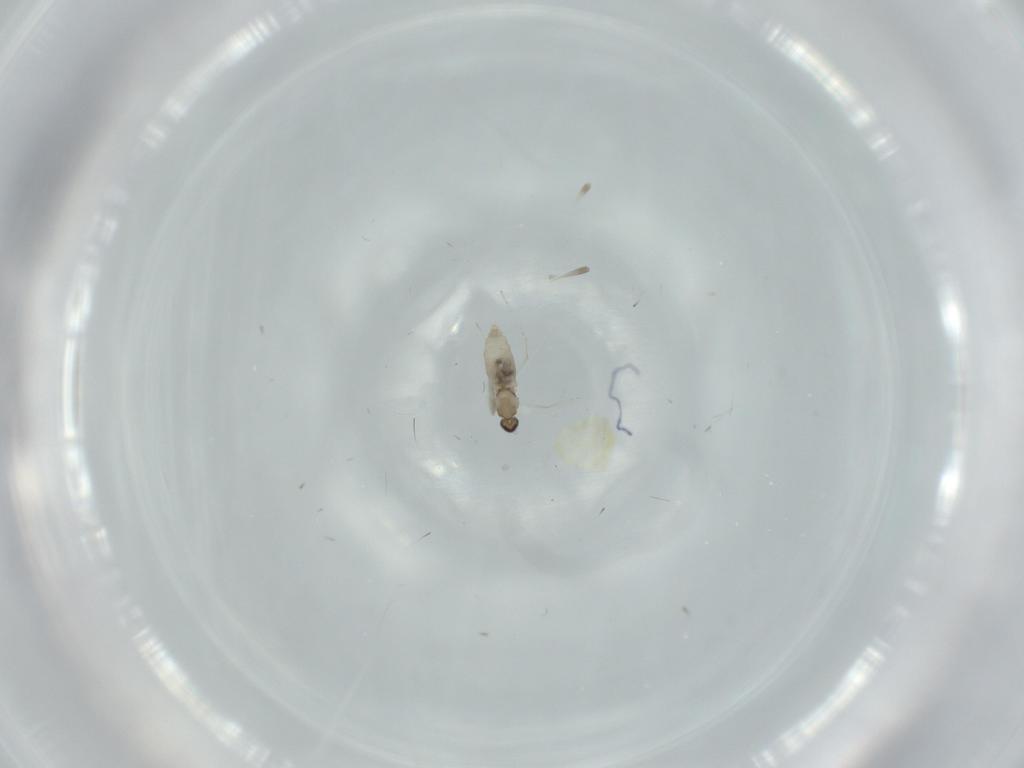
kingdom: Animalia
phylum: Arthropoda
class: Insecta
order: Diptera
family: Cecidomyiidae
